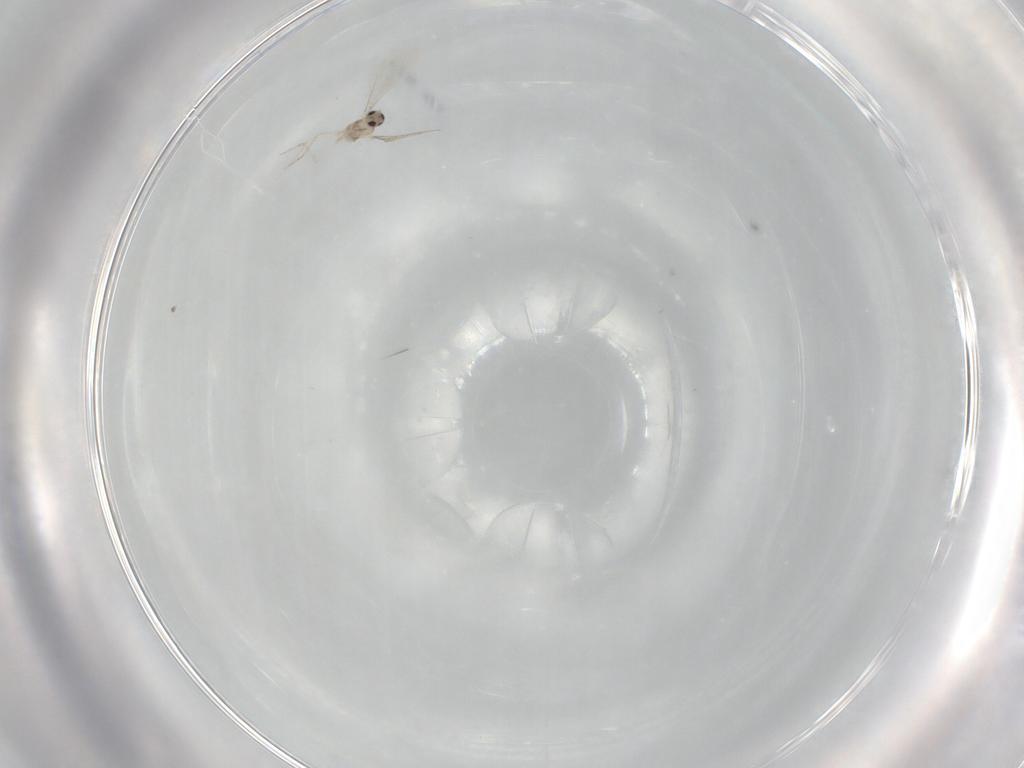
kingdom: Animalia
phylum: Arthropoda
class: Insecta
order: Diptera
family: Cecidomyiidae
